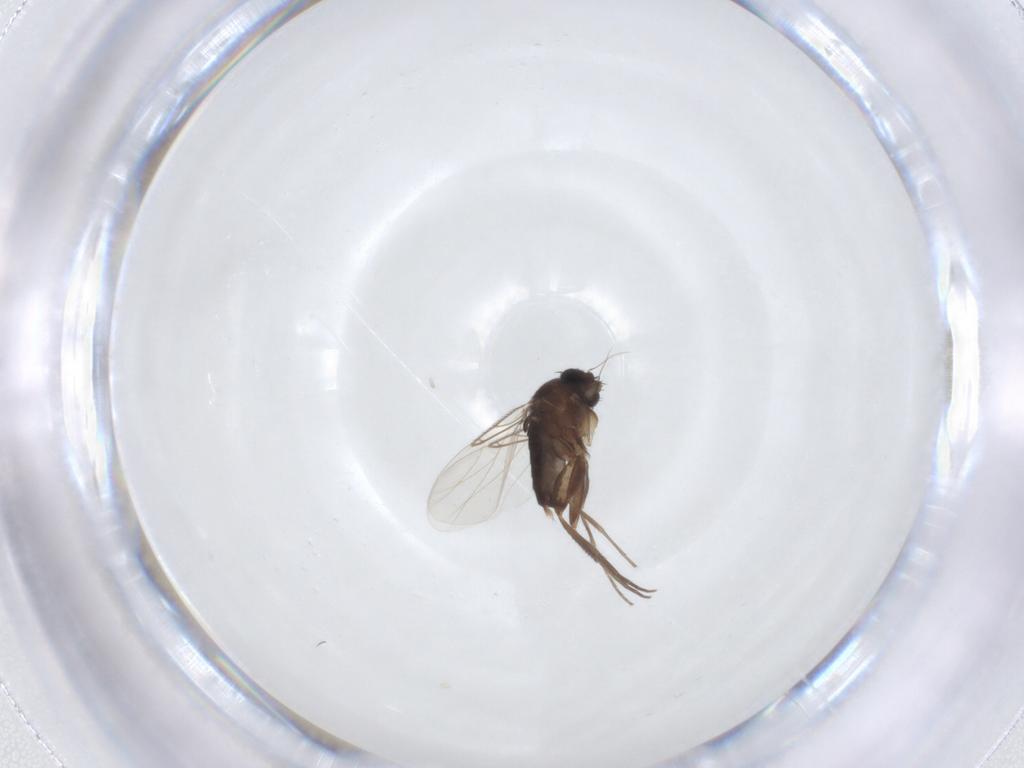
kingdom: Animalia
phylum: Arthropoda
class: Insecta
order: Diptera
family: Phoridae
